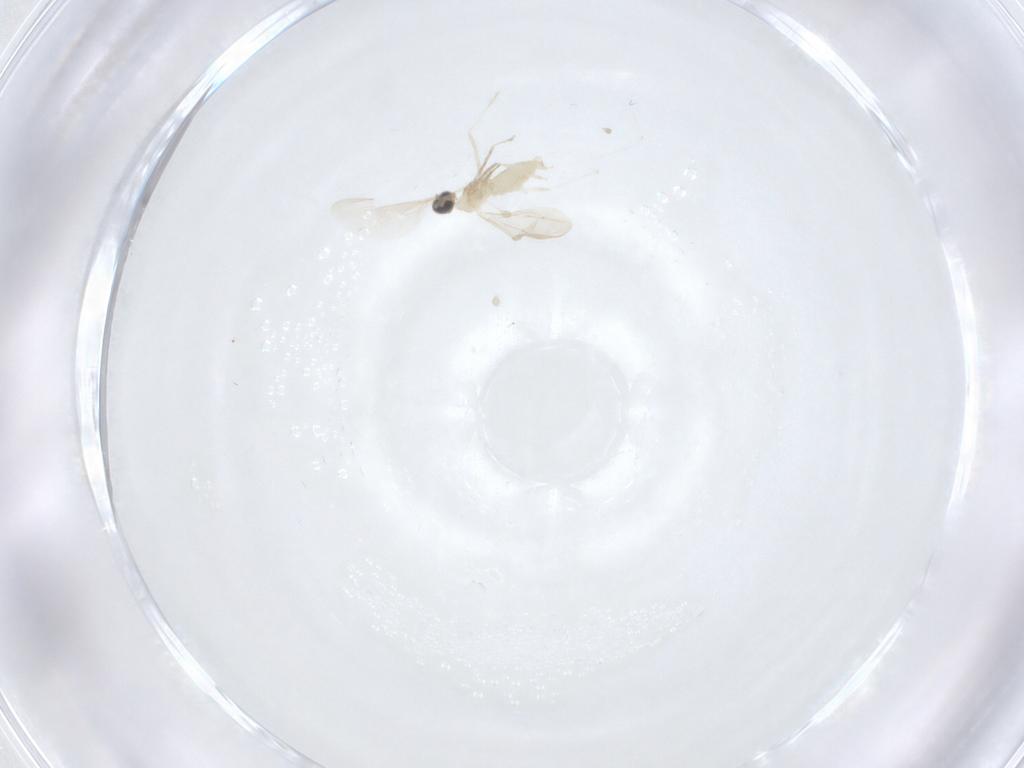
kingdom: Animalia
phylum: Arthropoda
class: Insecta
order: Diptera
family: Cecidomyiidae
